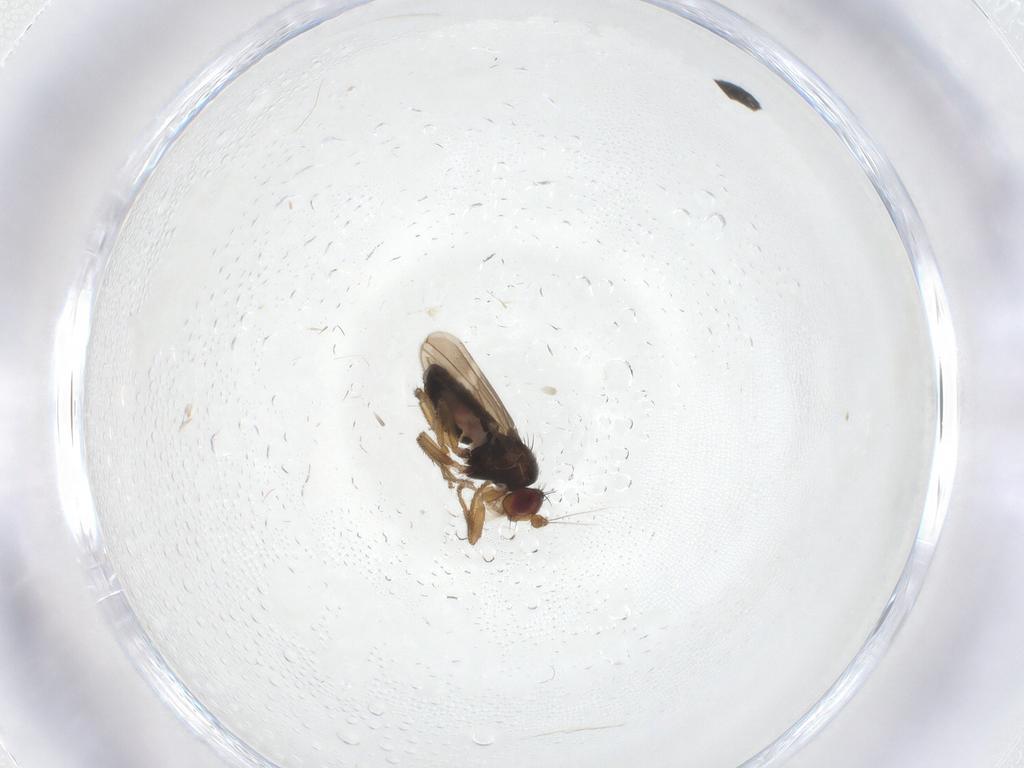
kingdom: Animalia
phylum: Arthropoda
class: Insecta
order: Diptera
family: Sphaeroceridae
